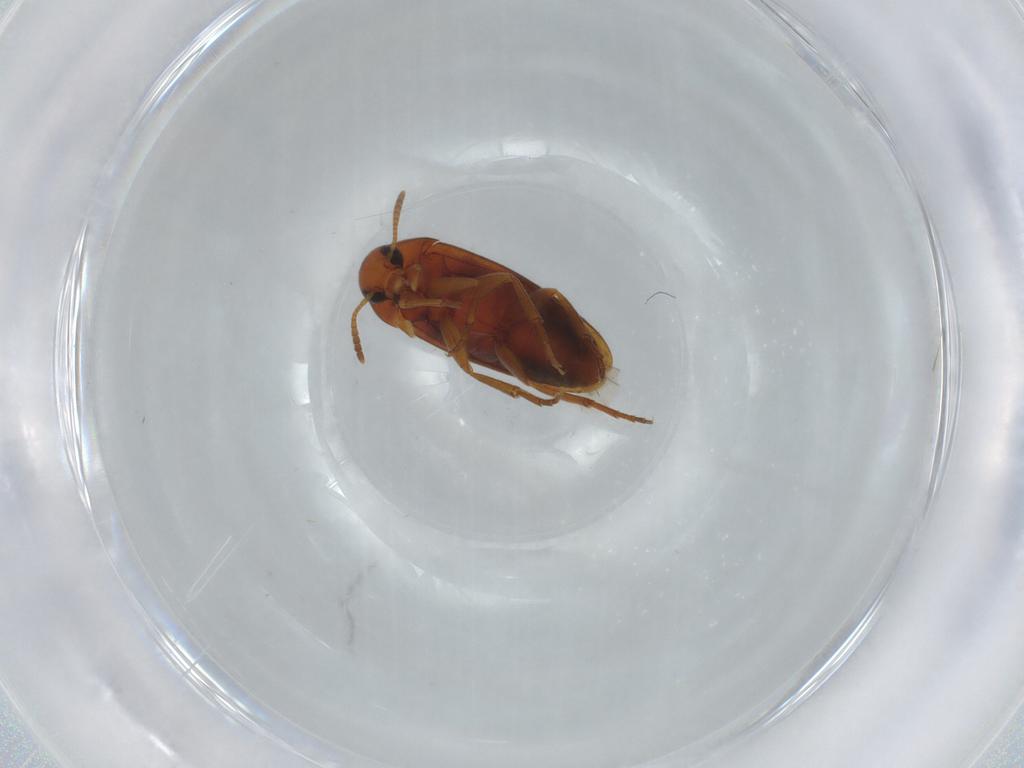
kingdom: Animalia
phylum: Arthropoda
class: Insecta
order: Coleoptera
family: Scraptiidae
